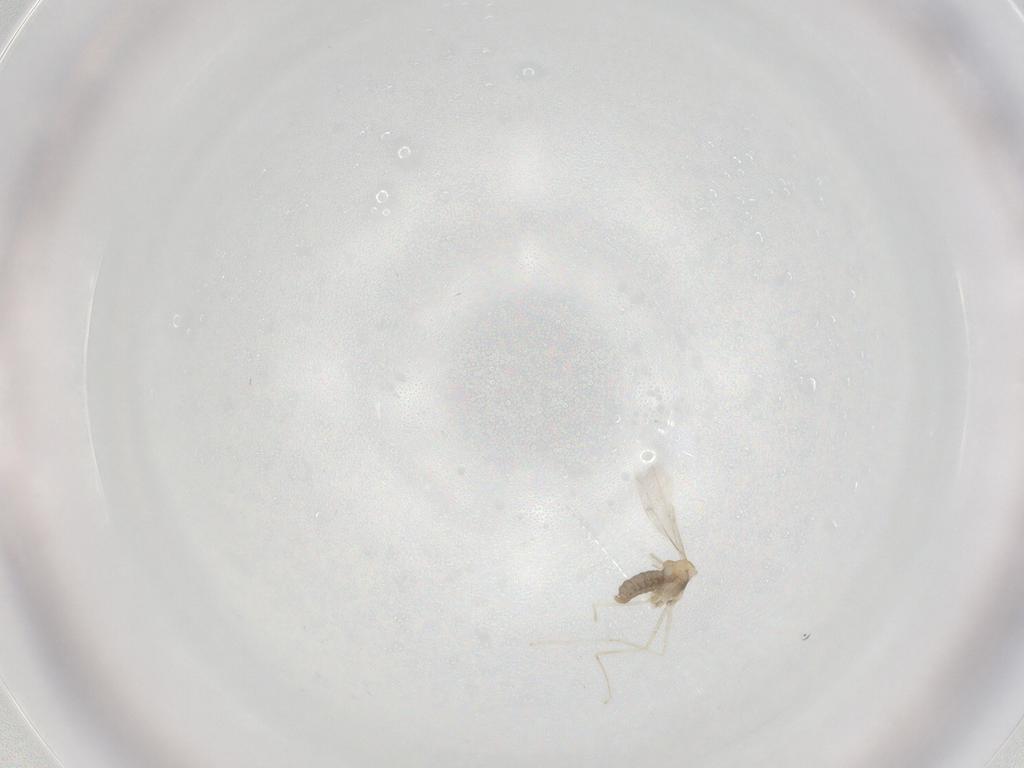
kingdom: Animalia
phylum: Arthropoda
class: Insecta
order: Diptera
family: Cecidomyiidae
